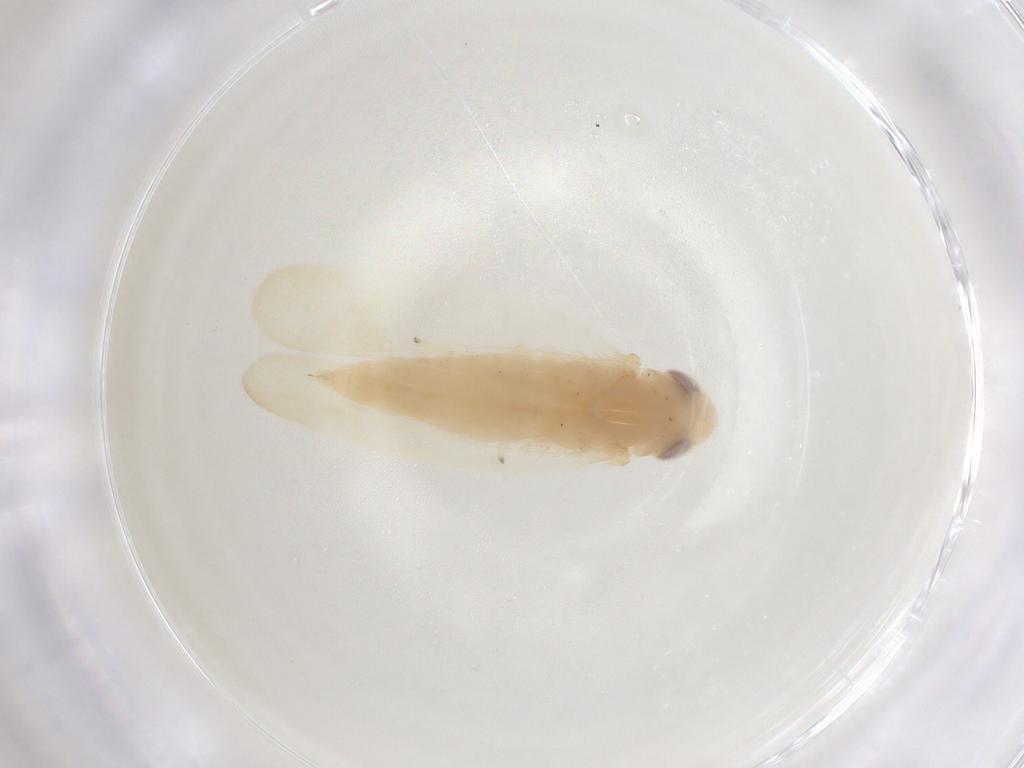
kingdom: Animalia
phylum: Arthropoda
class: Insecta
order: Hemiptera
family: Cicadellidae
